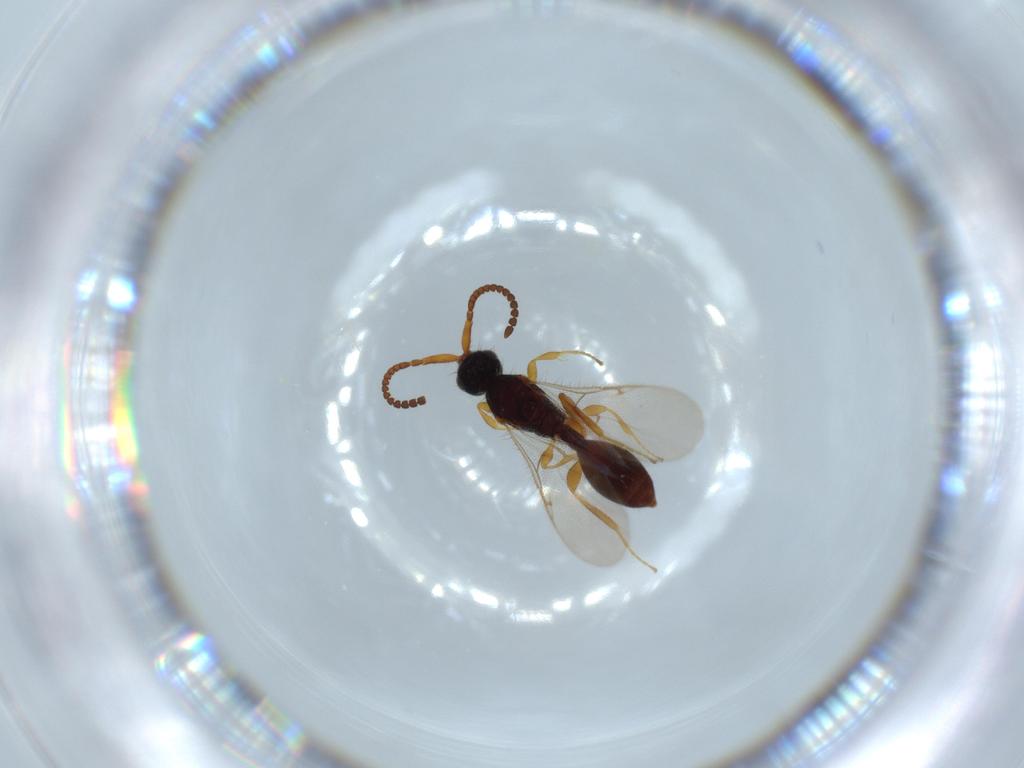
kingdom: Animalia
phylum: Arthropoda
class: Insecta
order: Hymenoptera
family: Diapriidae
